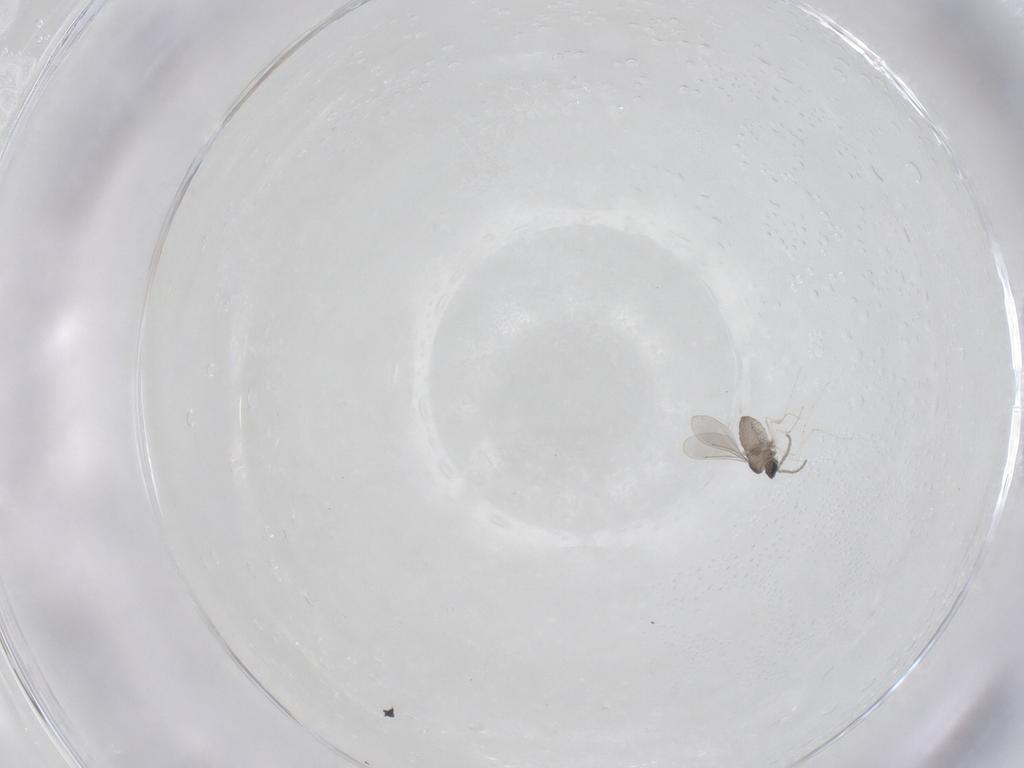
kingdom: Animalia
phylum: Arthropoda
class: Insecta
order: Diptera
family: Cecidomyiidae
